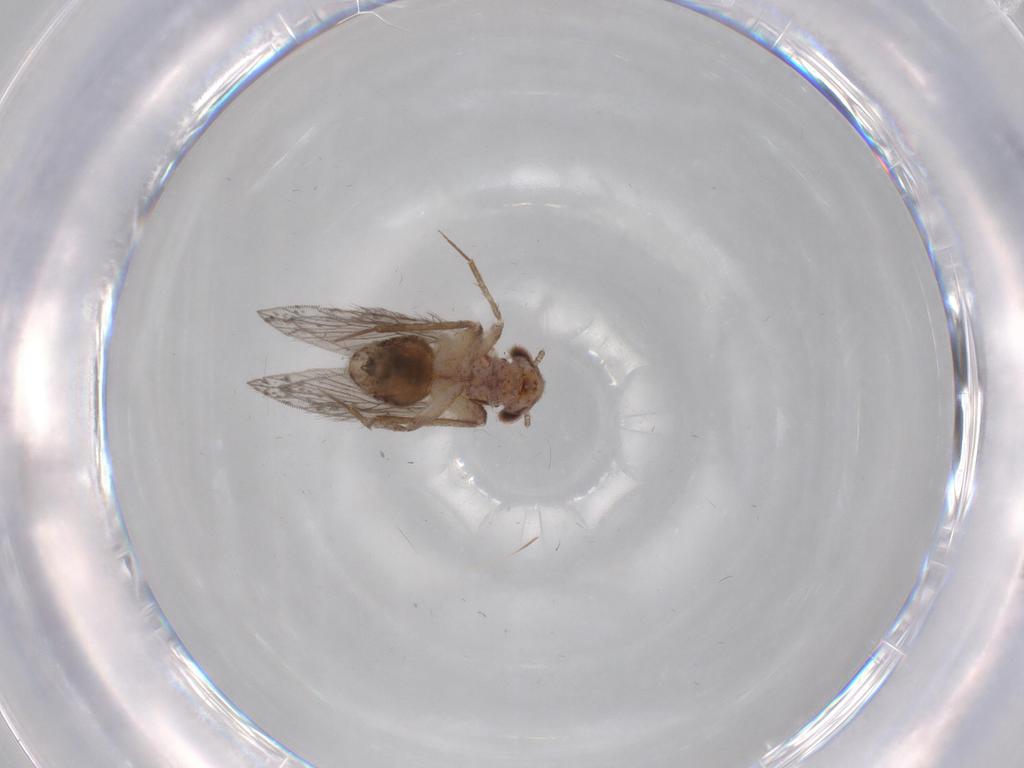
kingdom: Animalia
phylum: Arthropoda
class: Insecta
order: Psocodea
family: Lepidopsocidae
